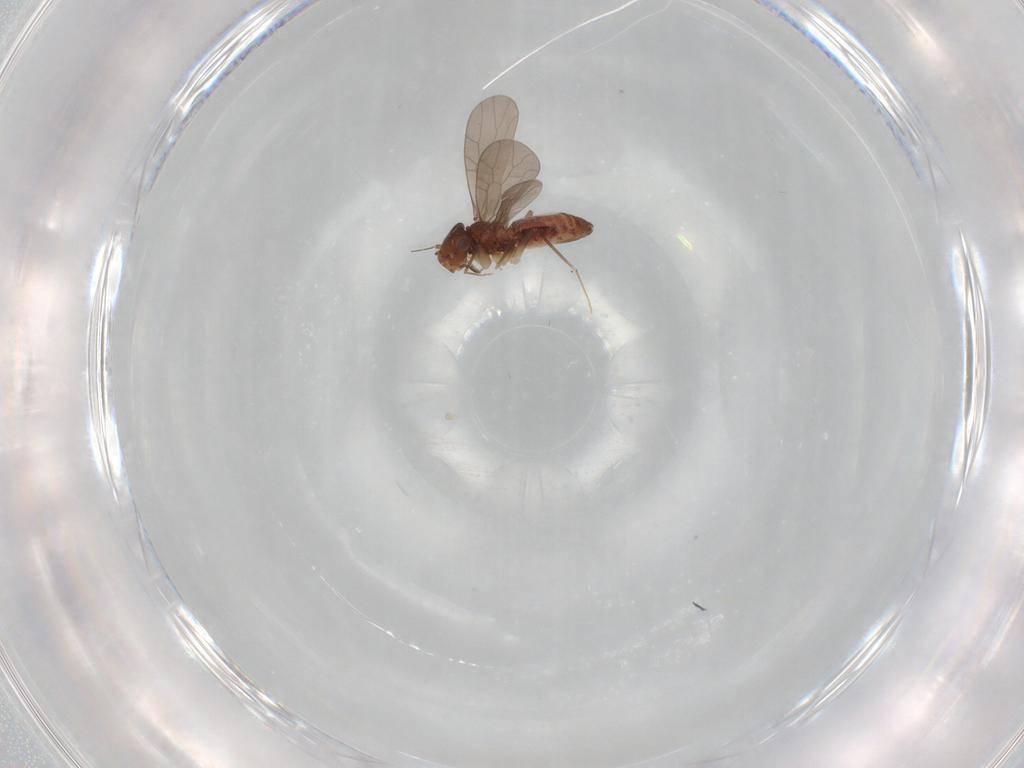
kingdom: Animalia
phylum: Arthropoda
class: Insecta
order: Psocodea
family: Lepidopsocidae
